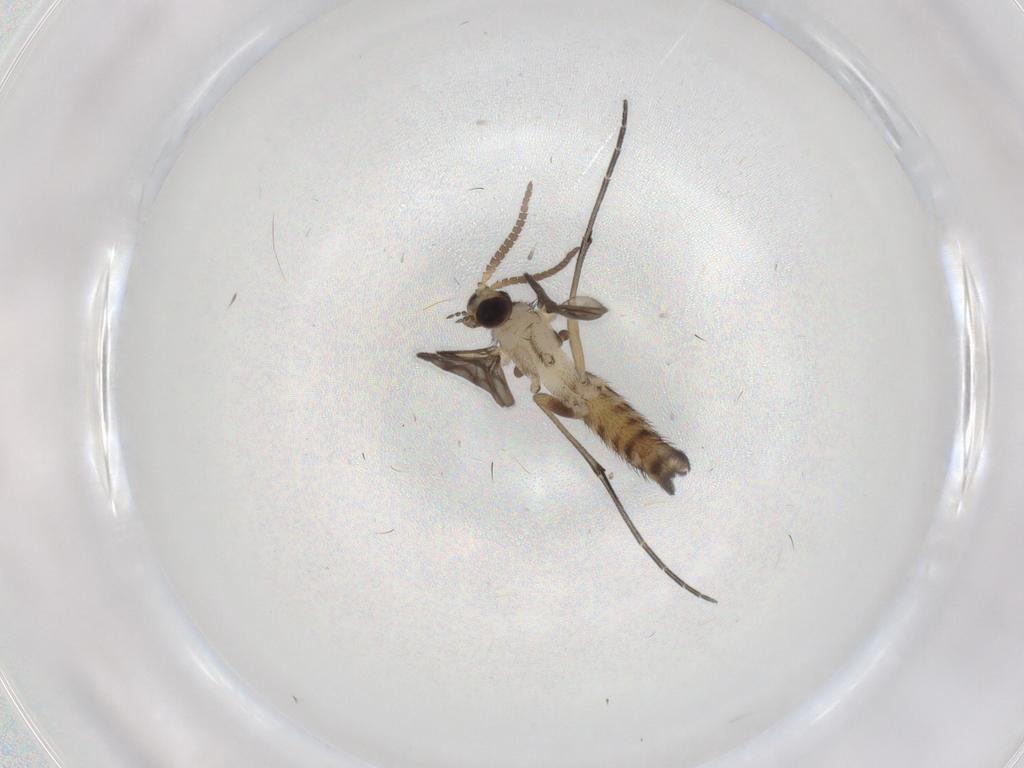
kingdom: Animalia
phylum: Arthropoda
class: Insecta
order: Diptera
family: Keroplatidae
